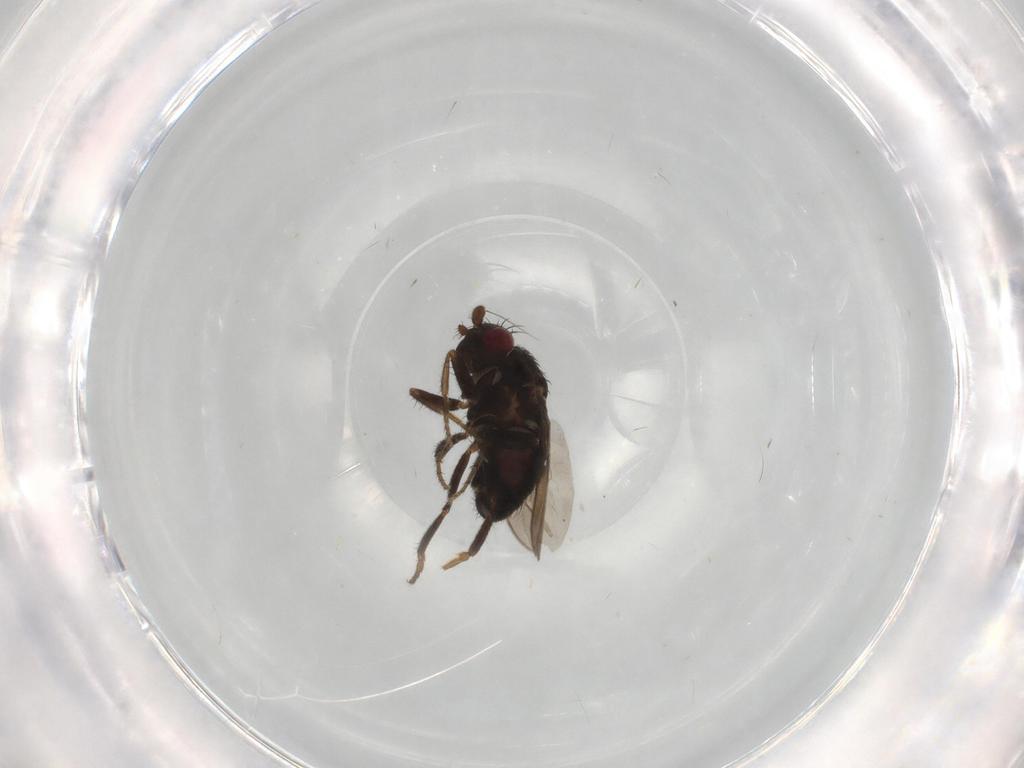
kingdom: Animalia
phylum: Arthropoda
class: Insecta
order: Diptera
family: Sphaeroceridae
